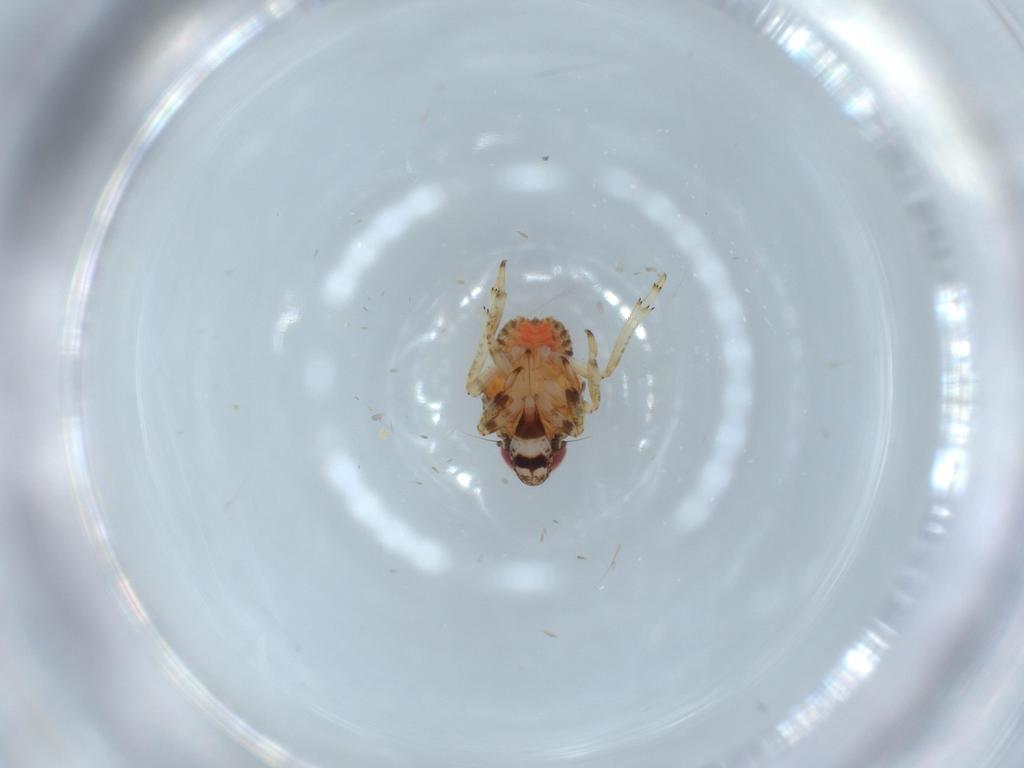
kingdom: Animalia
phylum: Arthropoda
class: Insecta
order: Hemiptera
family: Issidae
